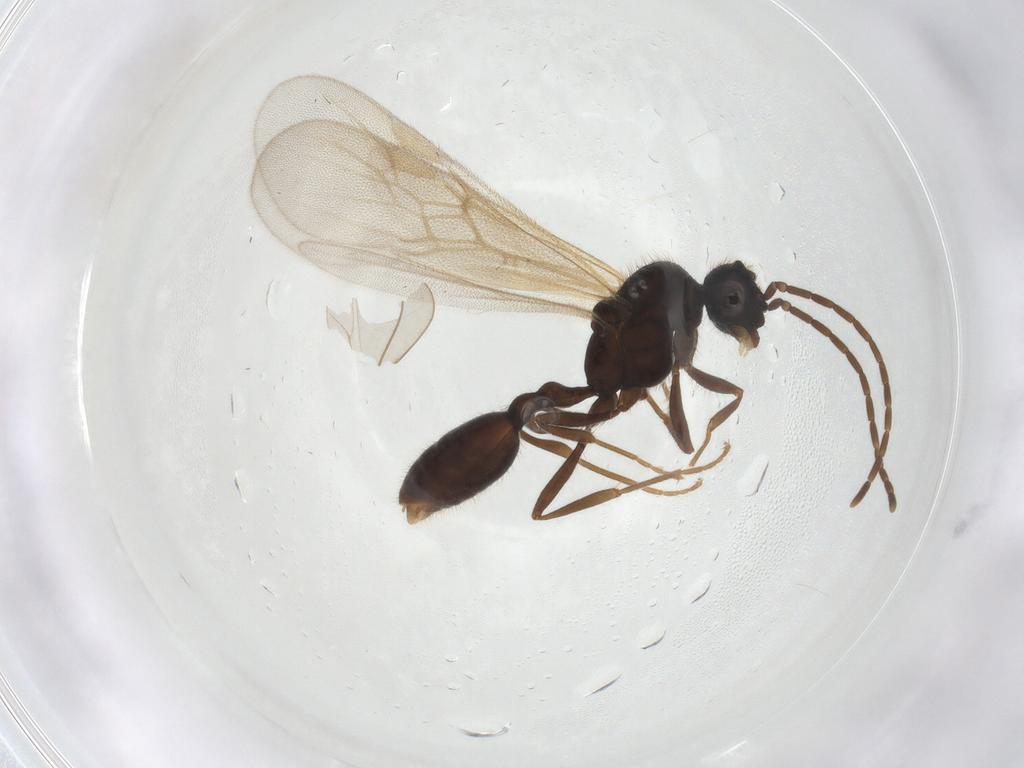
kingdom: Animalia
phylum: Arthropoda
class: Insecta
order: Hymenoptera
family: Formicidae
